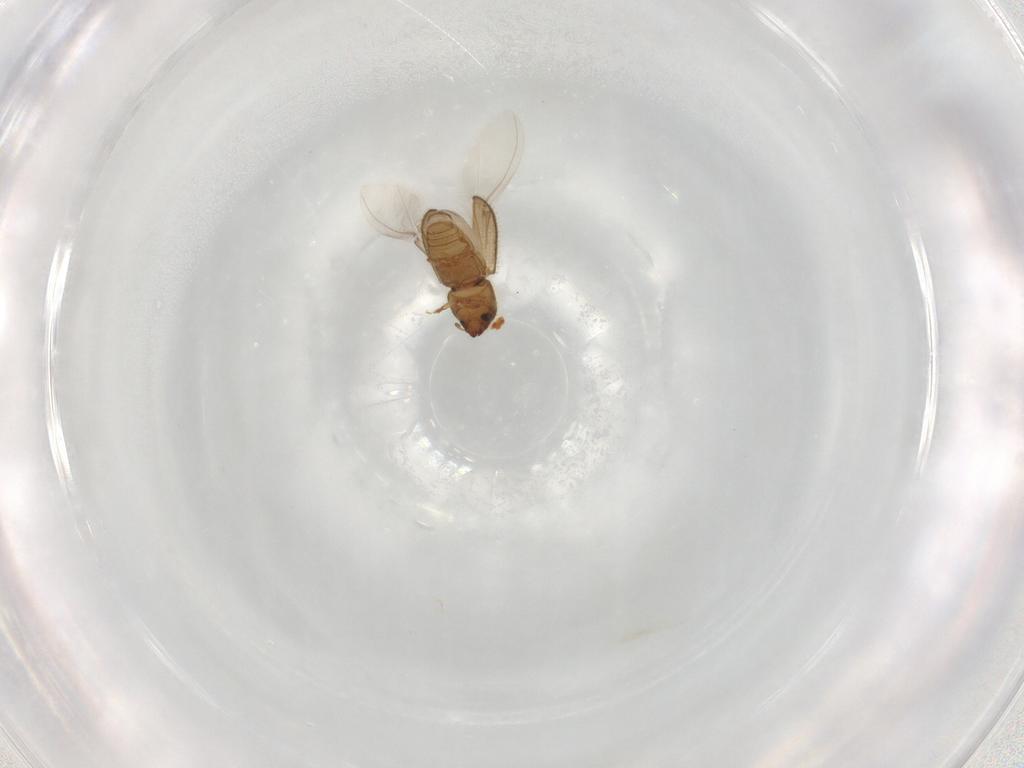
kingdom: Animalia
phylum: Arthropoda
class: Insecta
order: Coleoptera
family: Curculionidae
